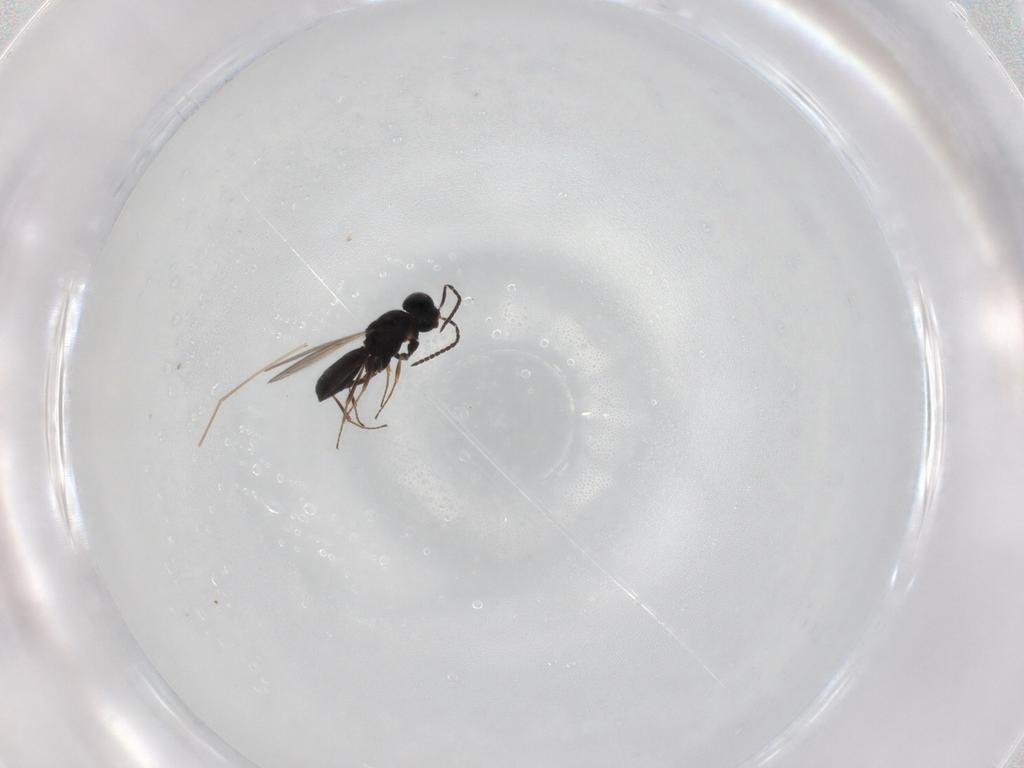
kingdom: Animalia
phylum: Arthropoda
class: Insecta
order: Hymenoptera
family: Scelionidae
